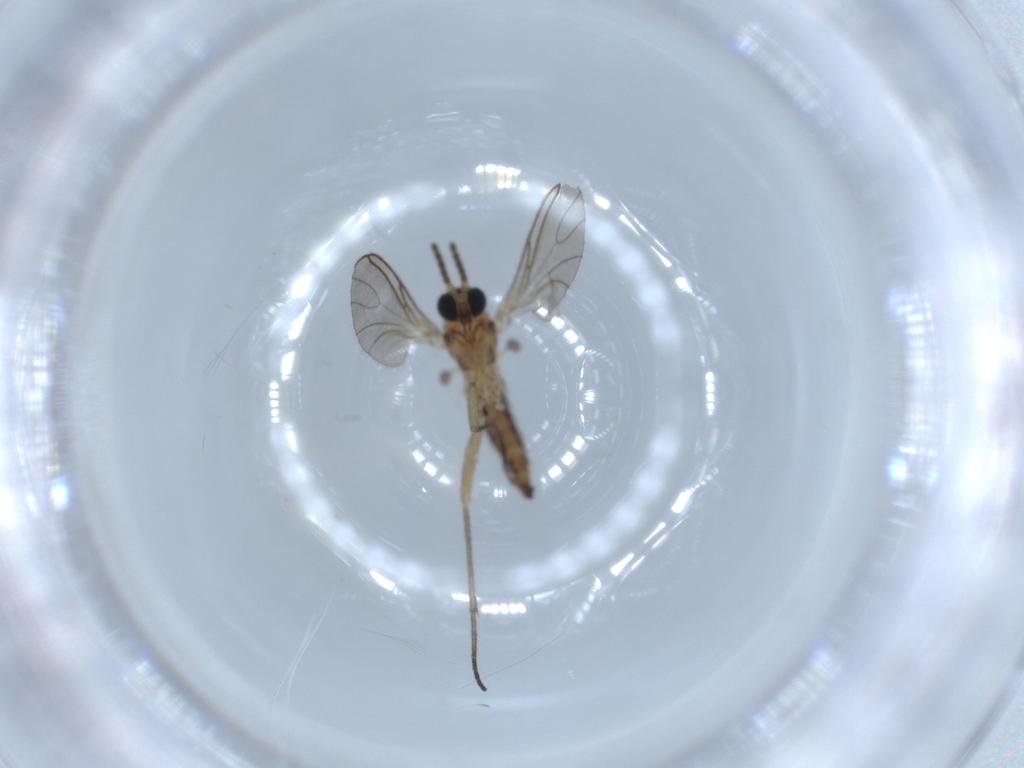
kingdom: Animalia
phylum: Arthropoda
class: Insecta
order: Diptera
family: Sciaridae
